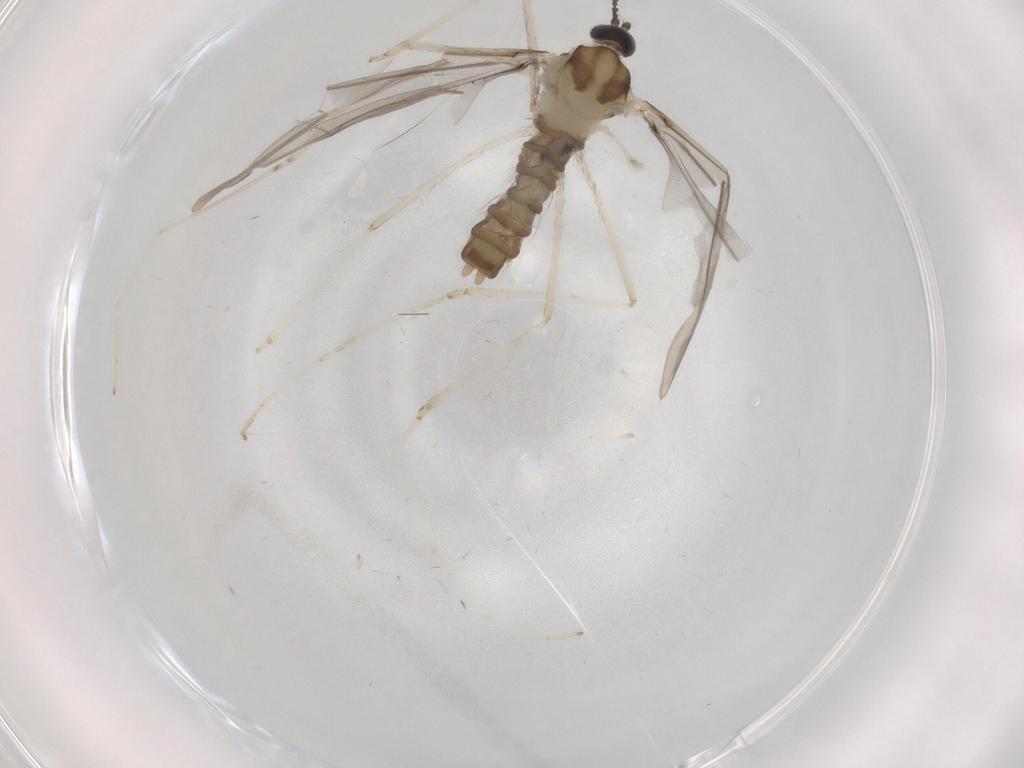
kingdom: Animalia
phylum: Arthropoda
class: Insecta
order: Diptera
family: Cecidomyiidae
